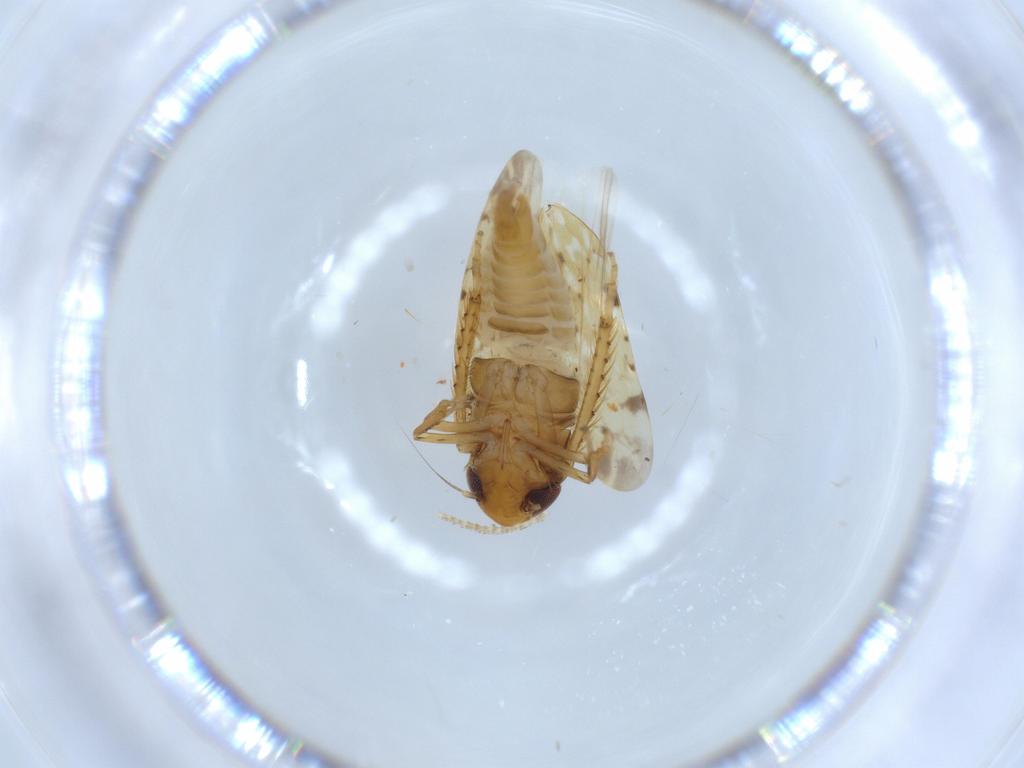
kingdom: Animalia
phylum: Arthropoda
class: Insecta
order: Hemiptera
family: Cicadellidae
